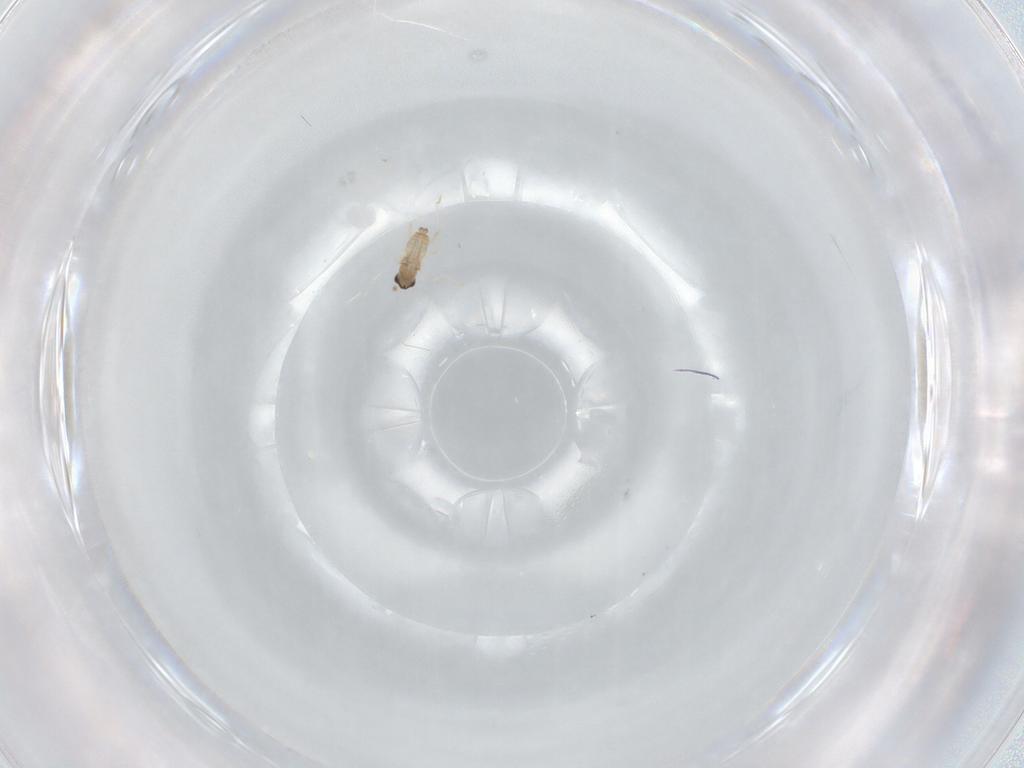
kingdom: Animalia
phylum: Arthropoda
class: Insecta
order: Diptera
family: Cecidomyiidae
